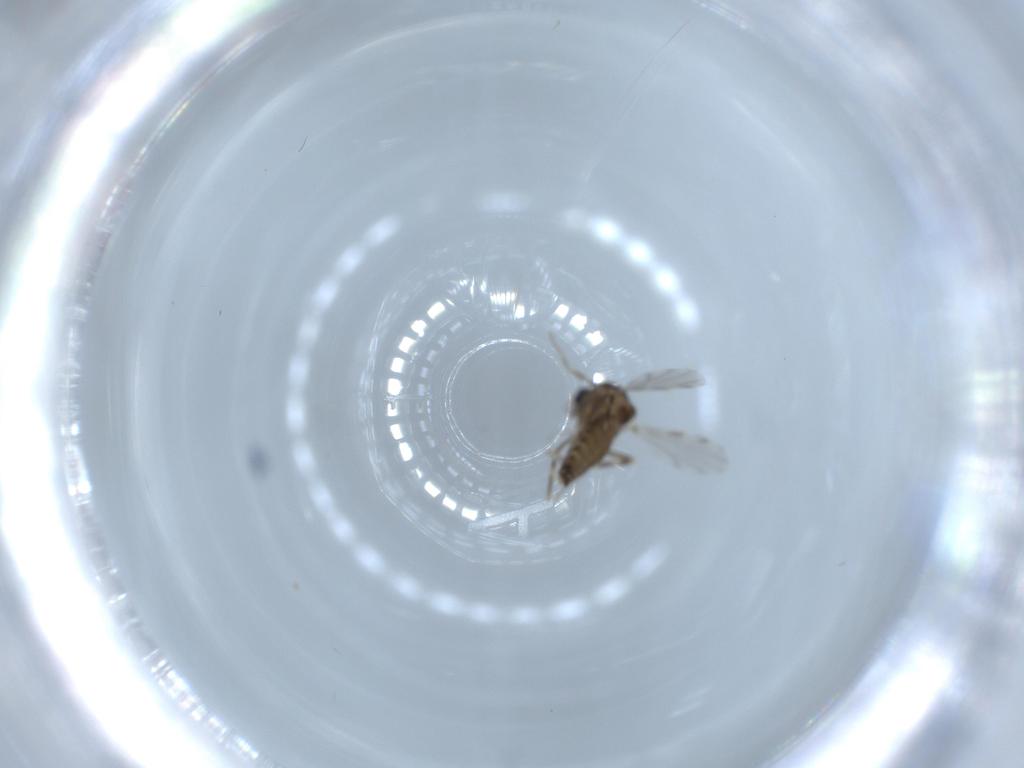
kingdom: Animalia
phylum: Arthropoda
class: Insecta
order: Diptera
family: Ceratopogonidae
